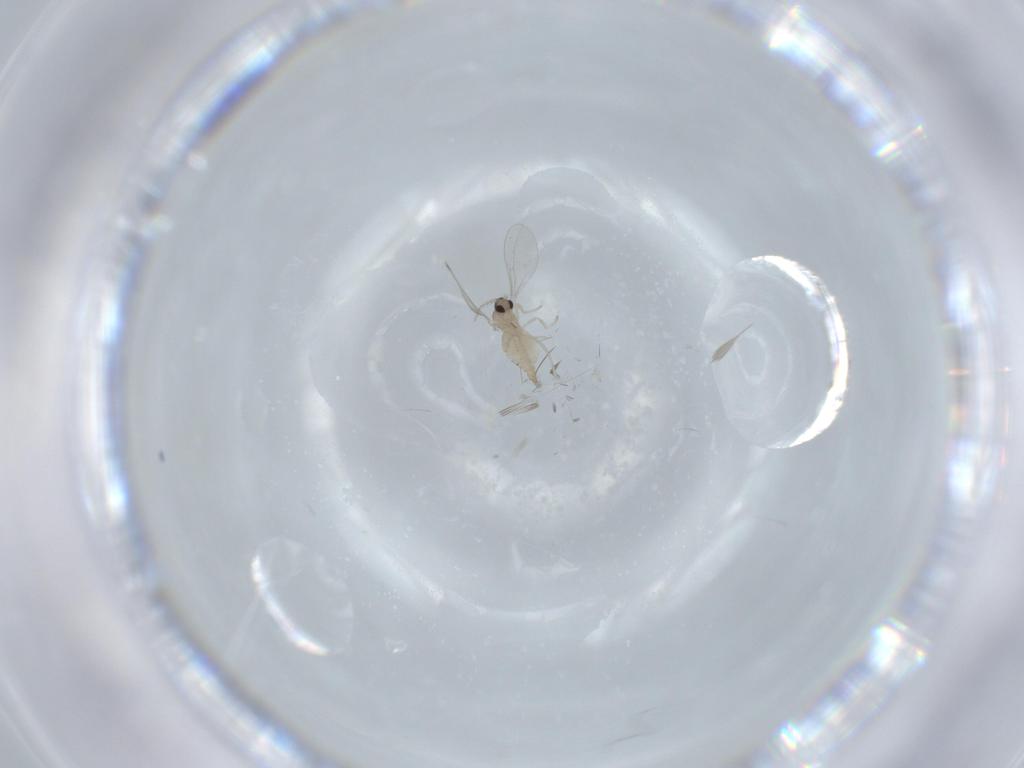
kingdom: Animalia
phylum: Arthropoda
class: Insecta
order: Diptera
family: Cecidomyiidae
